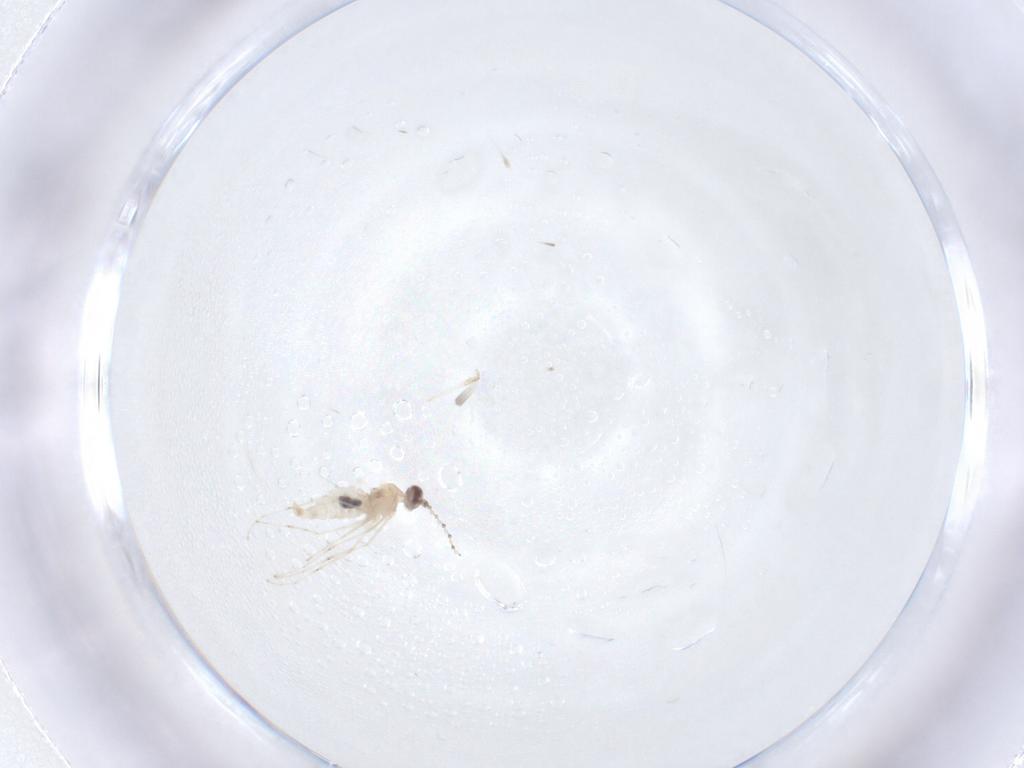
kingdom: Animalia
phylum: Arthropoda
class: Insecta
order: Diptera
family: Cecidomyiidae
